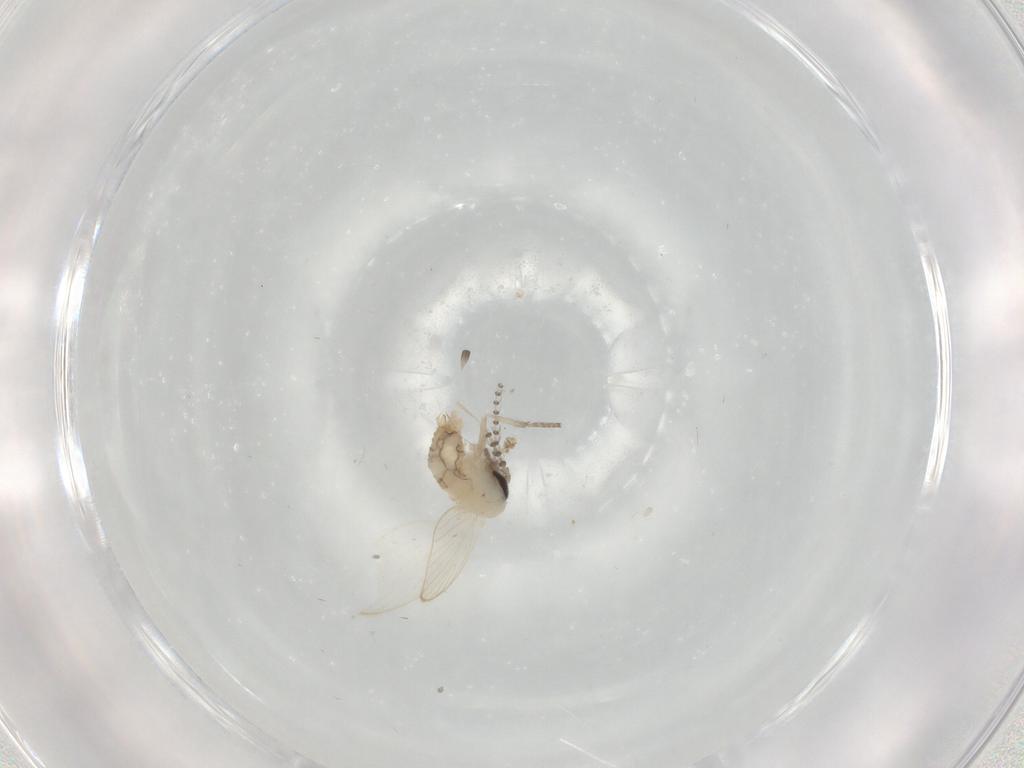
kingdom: Animalia
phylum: Arthropoda
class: Insecta
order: Diptera
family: Psychodidae
